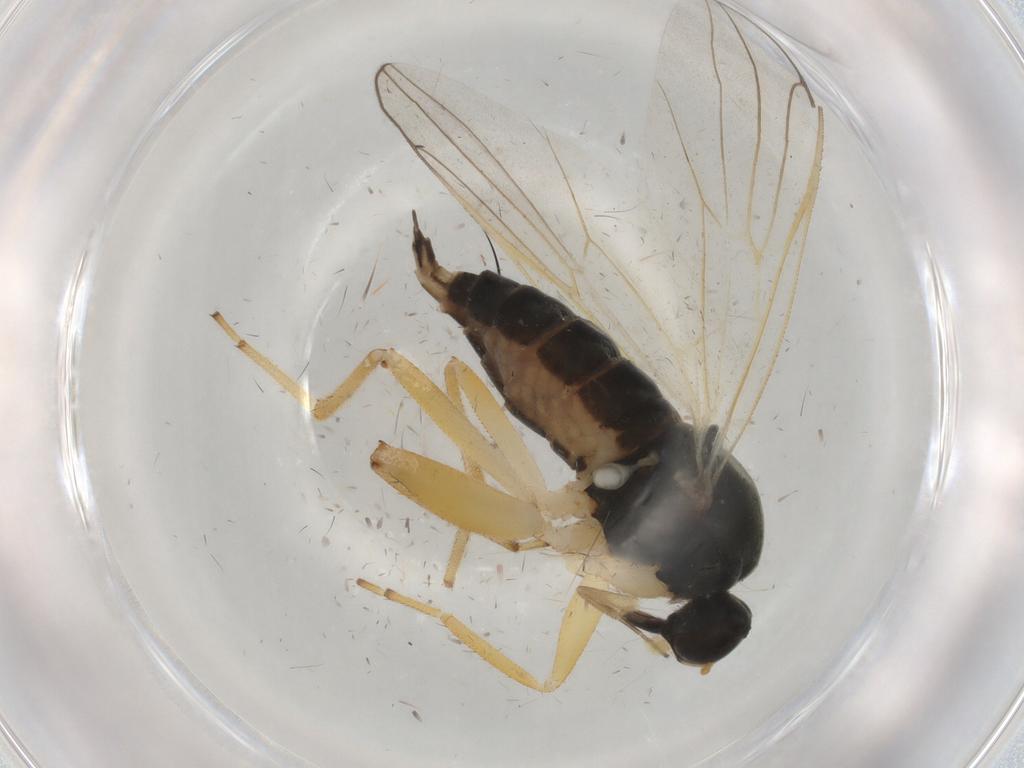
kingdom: Animalia
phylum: Arthropoda
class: Insecta
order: Diptera
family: Hybotidae
